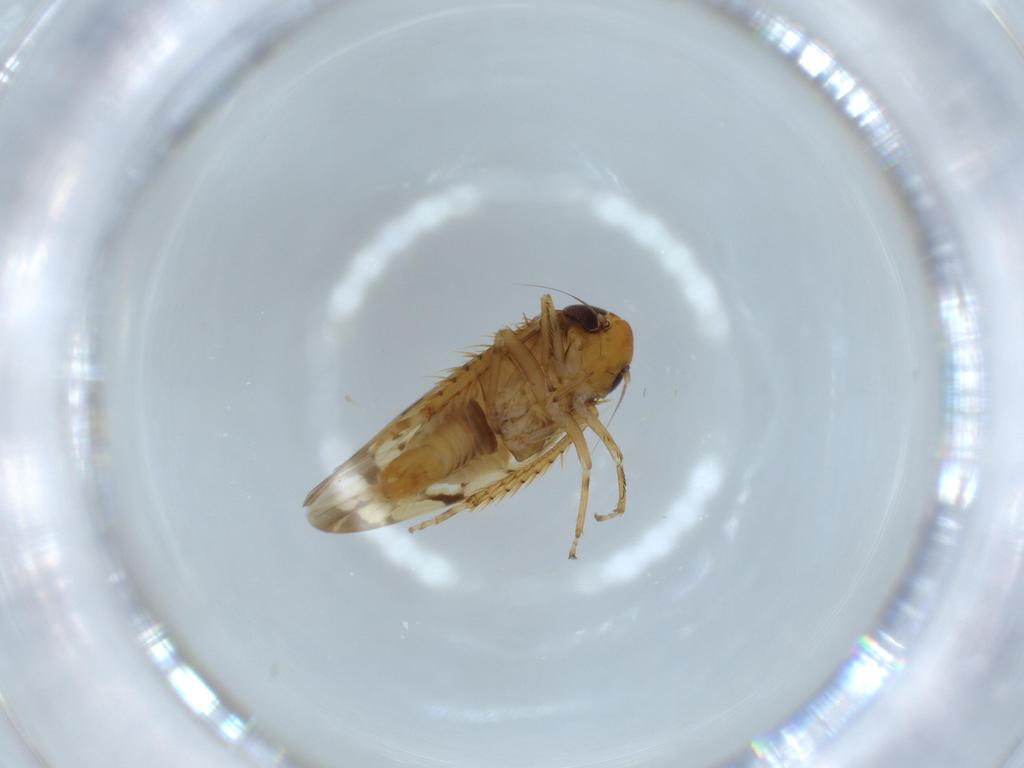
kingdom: Animalia
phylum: Arthropoda
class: Insecta
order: Hemiptera
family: Cicadellidae
